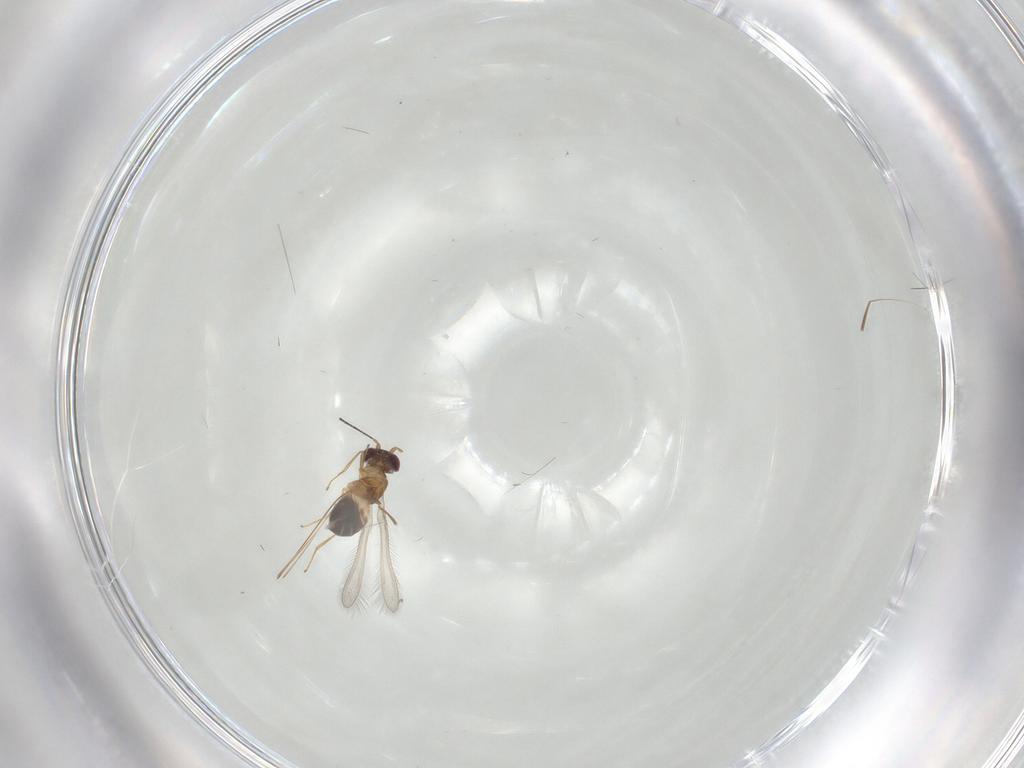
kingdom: Animalia
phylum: Arthropoda
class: Insecta
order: Hymenoptera
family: Mymaridae
